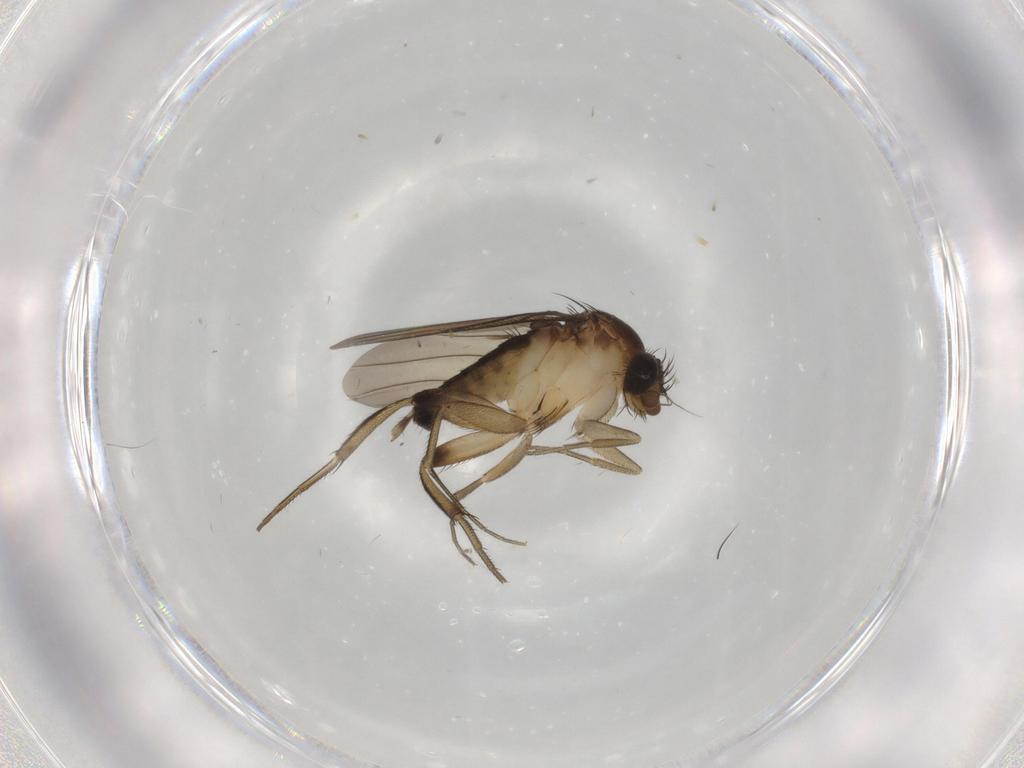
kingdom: Animalia
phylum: Arthropoda
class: Insecta
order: Diptera
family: Phoridae
